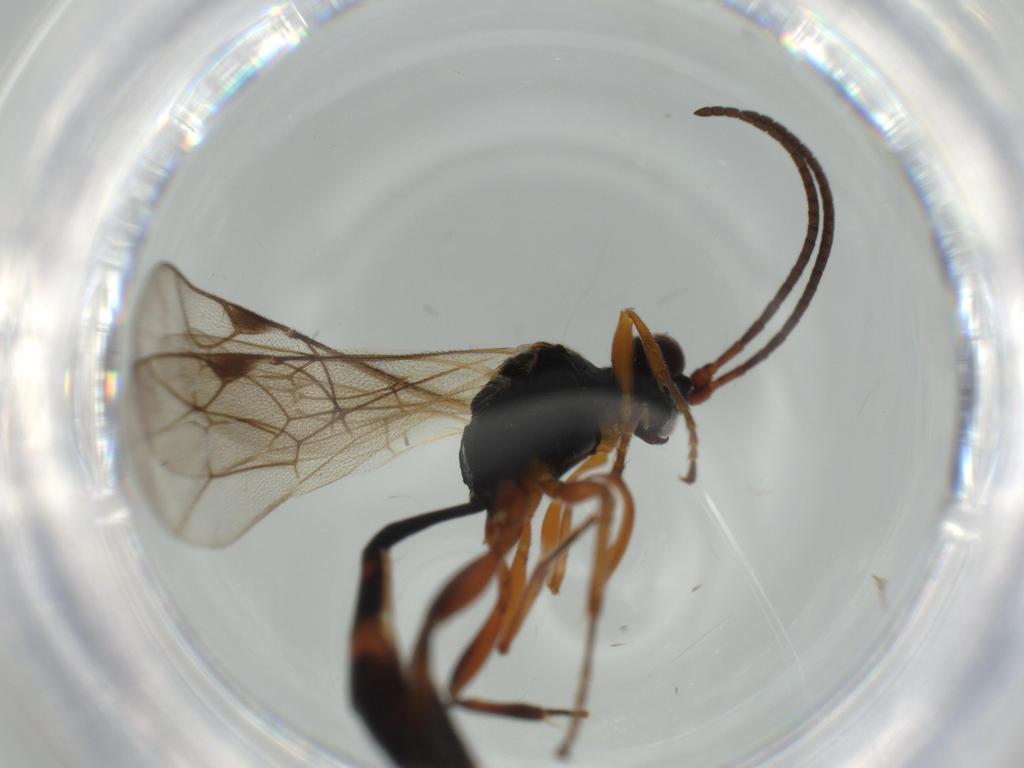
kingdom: Animalia
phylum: Arthropoda
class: Insecta
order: Hymenoptera
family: Ichneumonidae
